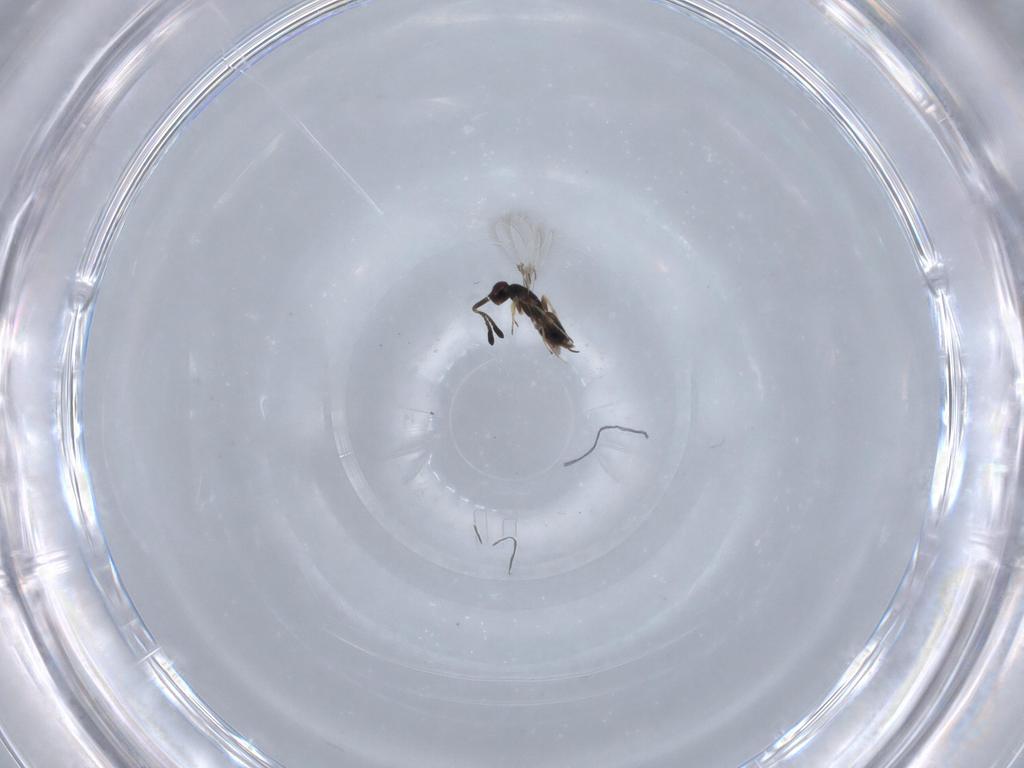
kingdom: Animalia
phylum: Arthropoda
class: Insecta
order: Hymenoptera
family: Mymaridae
